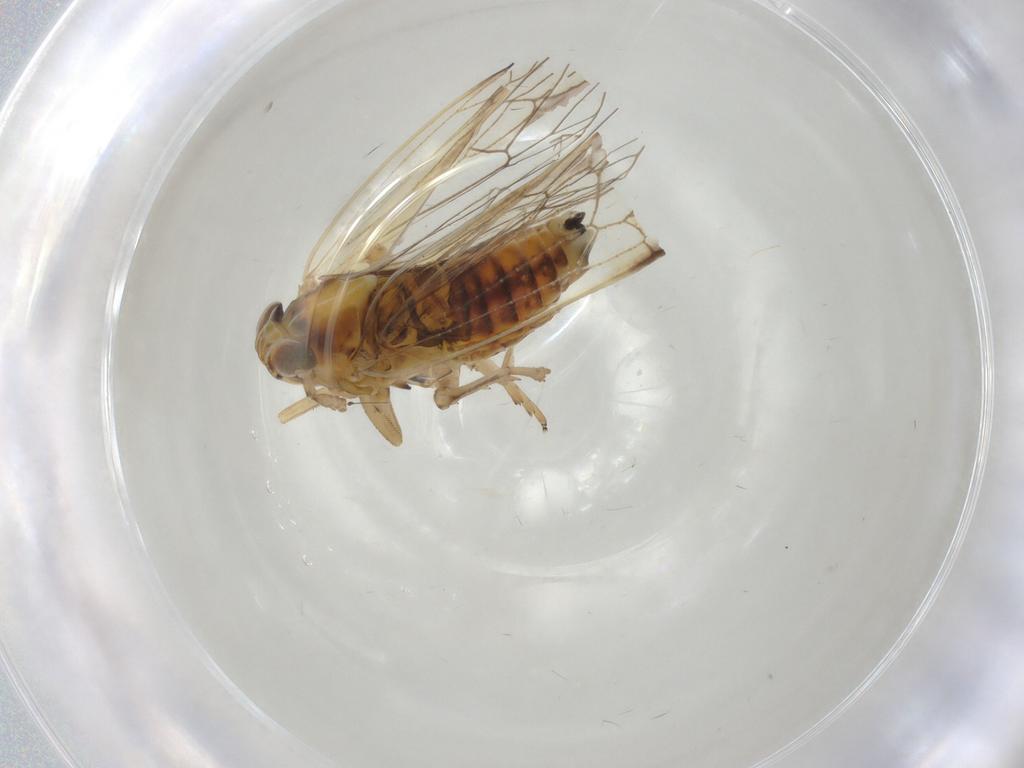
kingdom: Animalia
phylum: Arthropoda
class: Insecta
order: Hemiptera
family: Delphacidae
